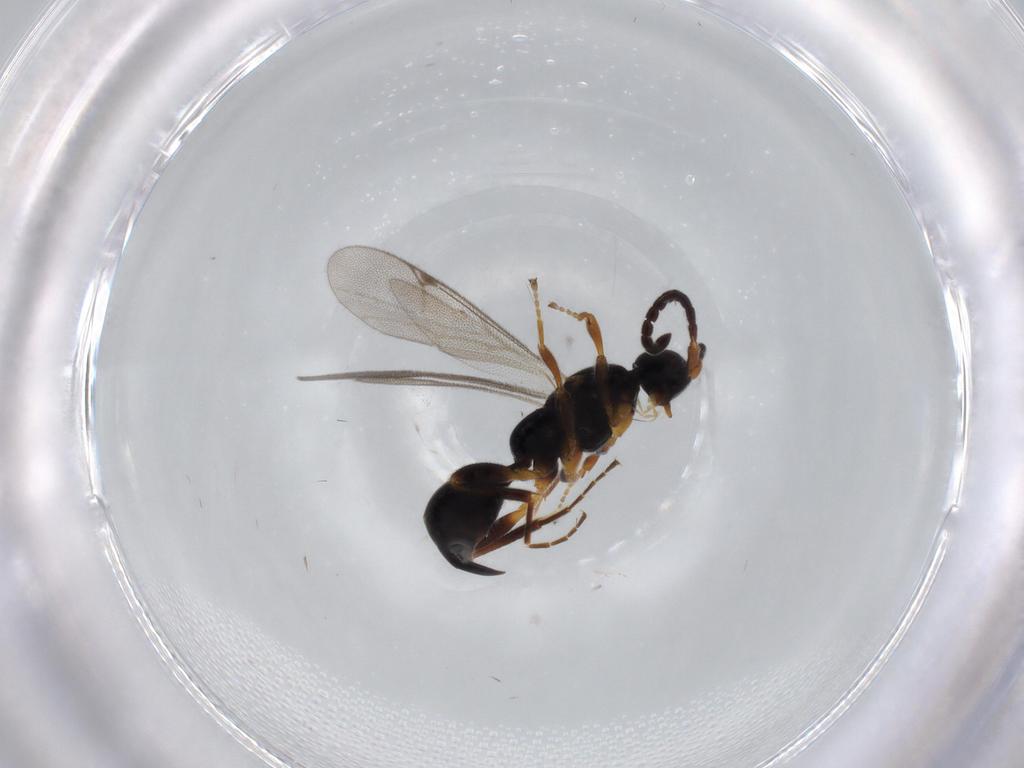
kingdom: Animalia
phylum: Arthropoda
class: Insecta
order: Hymenoptera
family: Proctotrupidae
